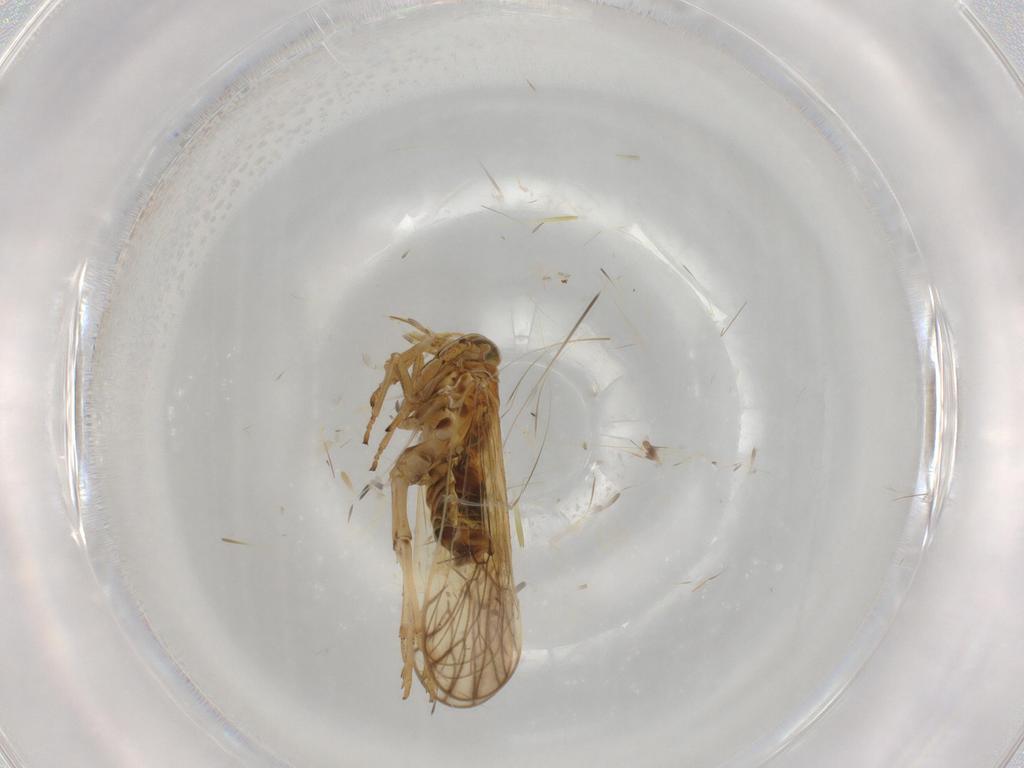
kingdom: Animalia
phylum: Arthropoda
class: Insecta
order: Hemiptera
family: Delphacidae
